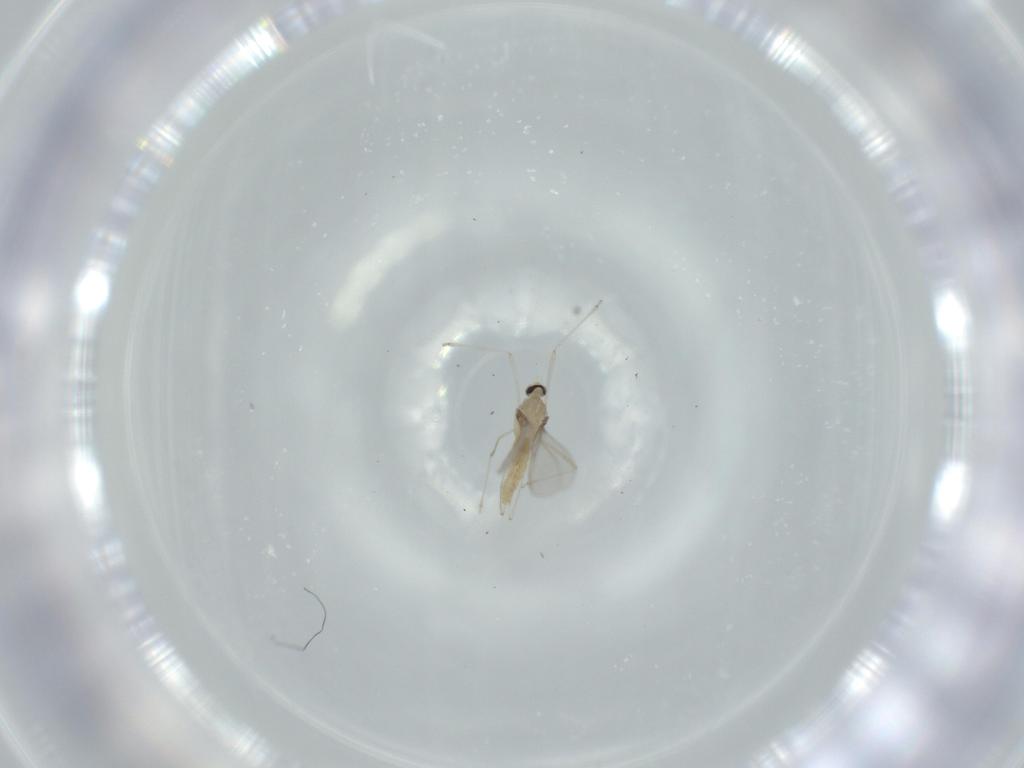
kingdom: Animalia
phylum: Arthropoda
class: Insecta
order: Diptera
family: Cecidomyiidae
